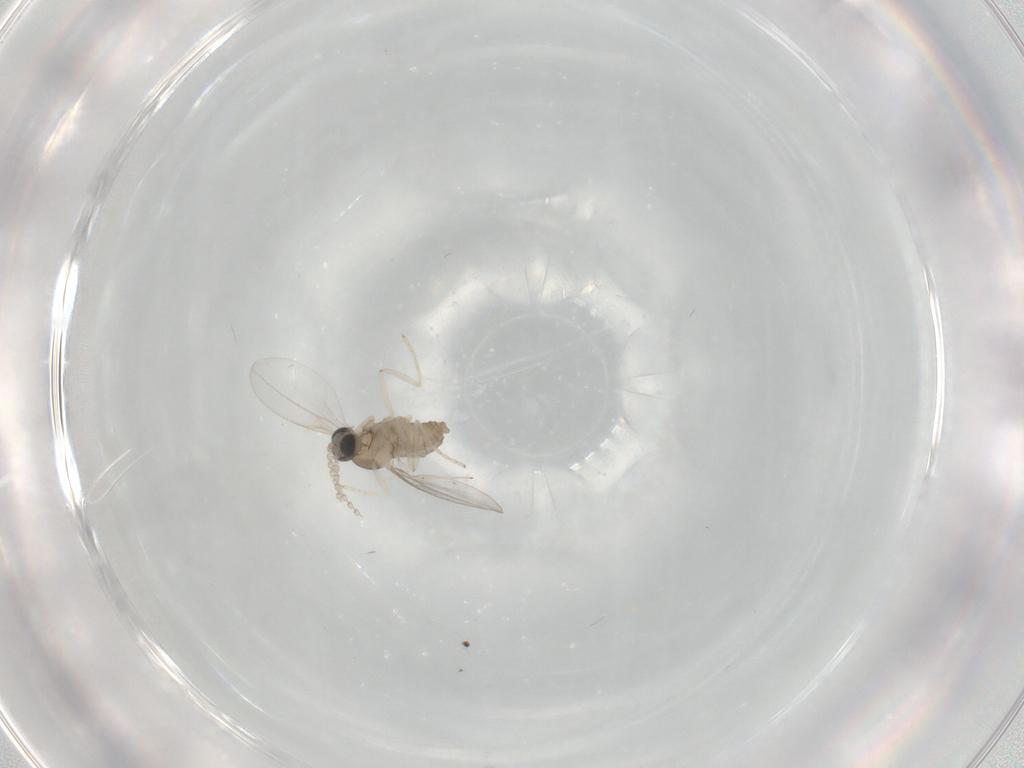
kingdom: Animalia
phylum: Arthropoda
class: Insecta
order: Diptera
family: Cecidomyiidae
